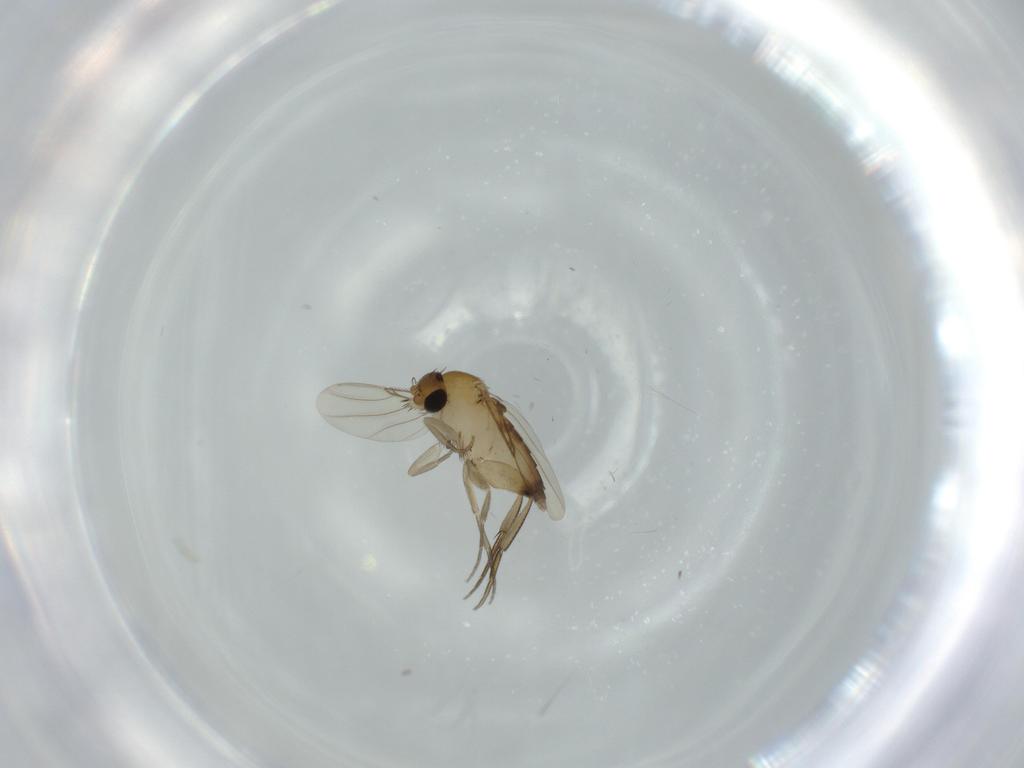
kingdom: Animalia
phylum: Arthropoda
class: Insecta
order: Diptera
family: Phoridae
